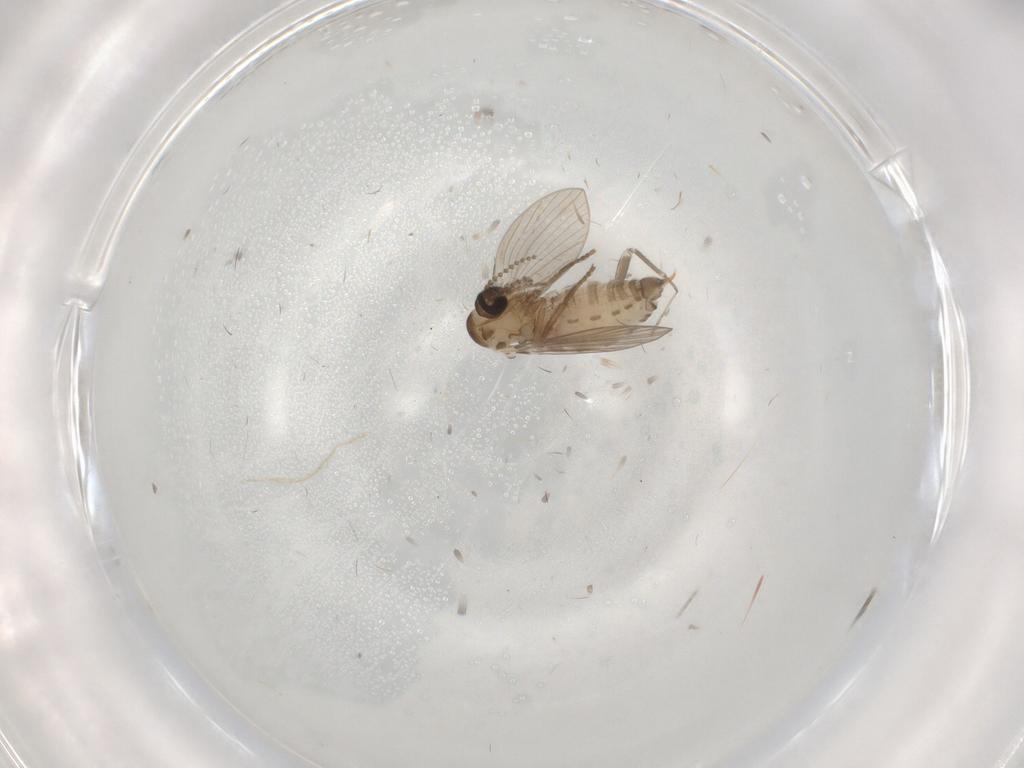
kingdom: Animalia
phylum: Arthropoda
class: Insecta
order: Diptera
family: Psychodidae
